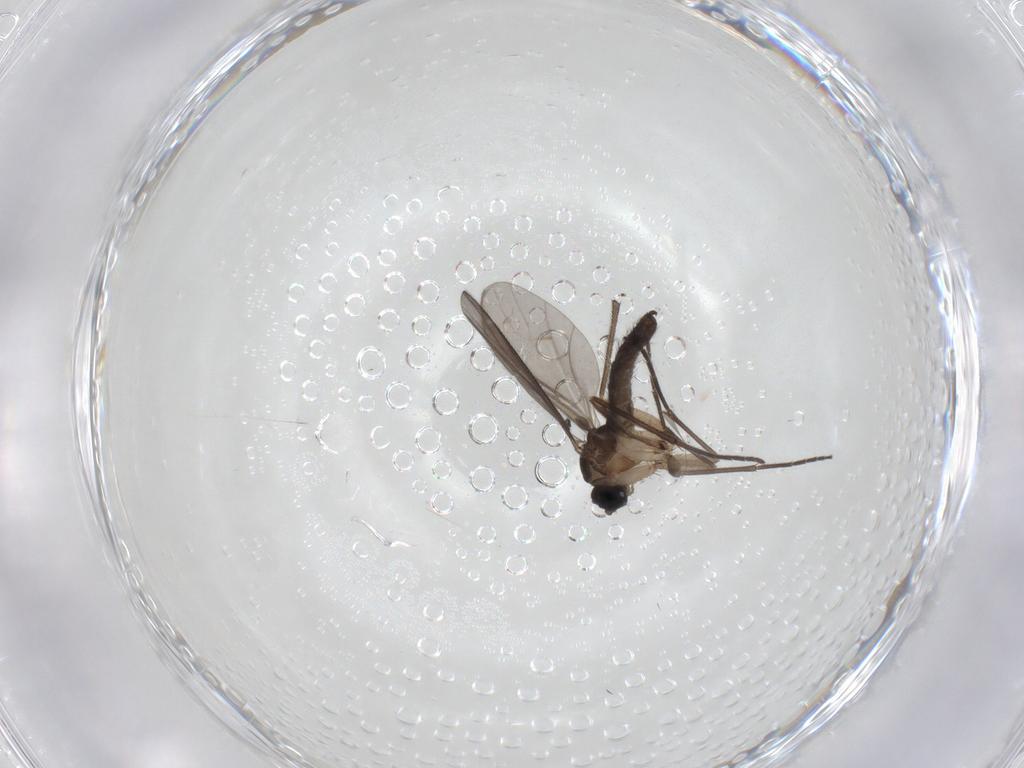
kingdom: Animalia
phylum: Arthropoda
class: Insecta
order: Diptera
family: Sciaridae
